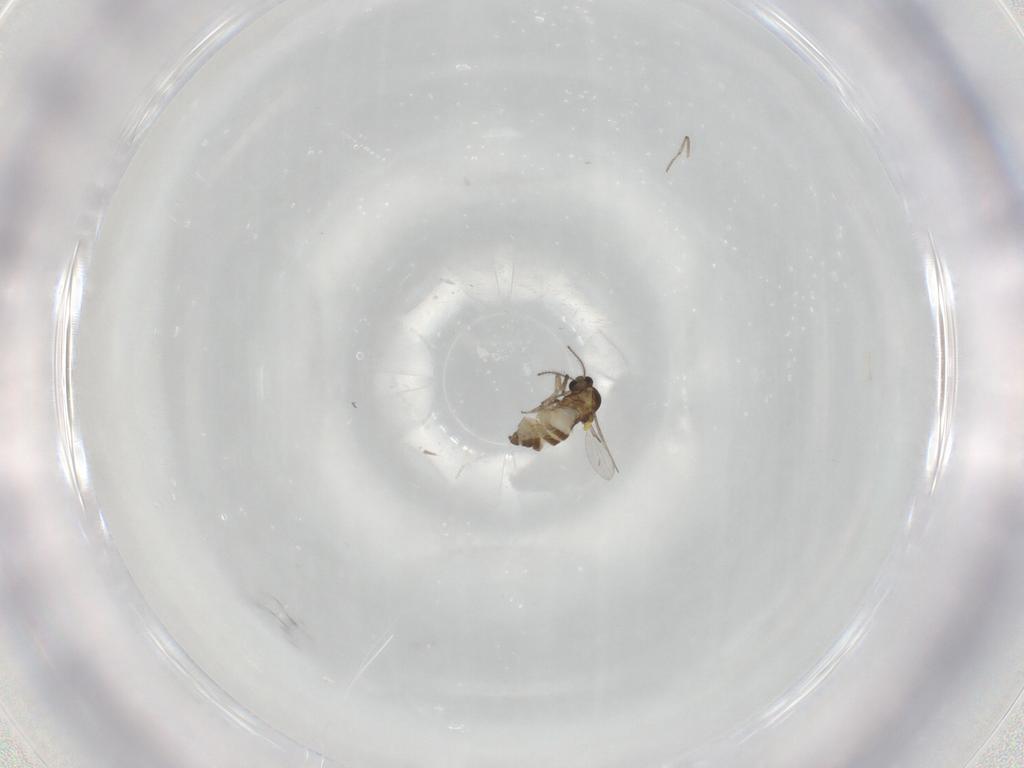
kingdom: Animalia
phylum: Arthropoda
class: Insecta
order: Diptera
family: Ceratopogonidae
